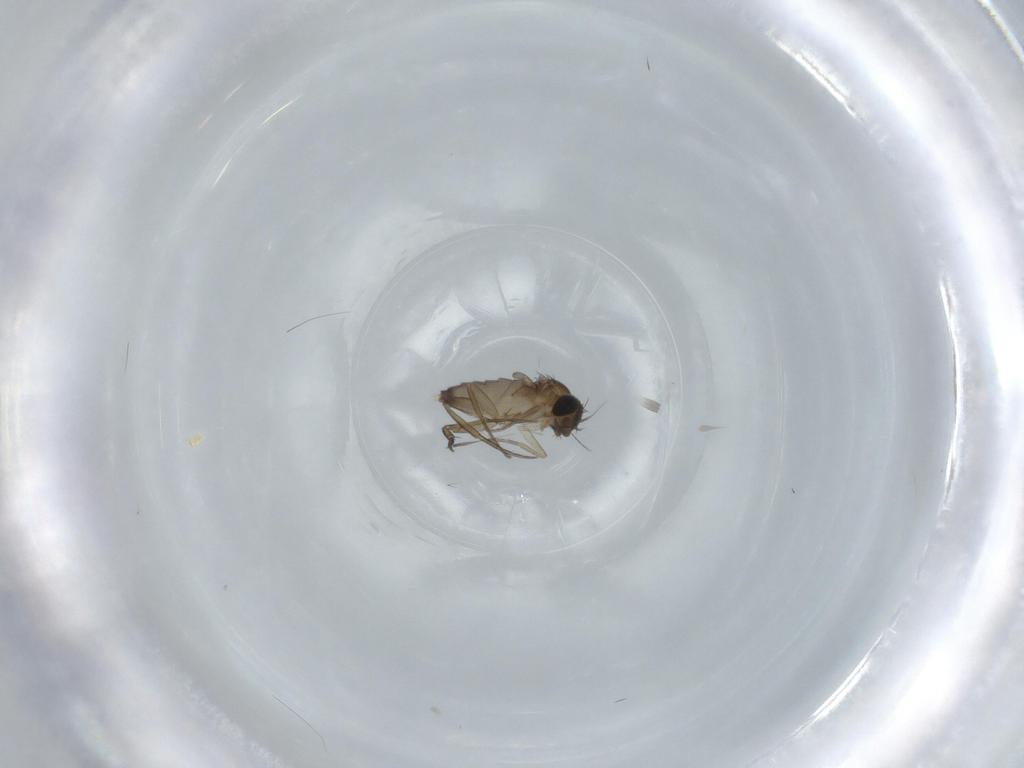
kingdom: Animalia
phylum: Arthropoda
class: Insecta
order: Diptera
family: Phoridae
